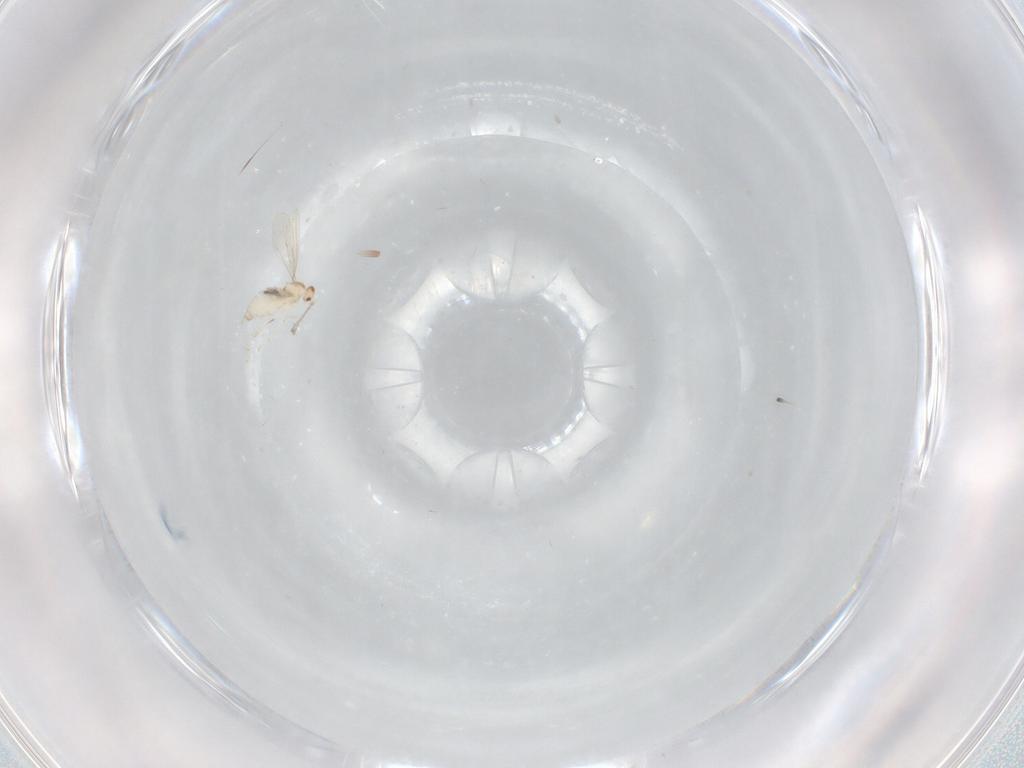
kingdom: Animalia
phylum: Arthropoda
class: Insecta
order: Diptera
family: Cecidomyiidae
